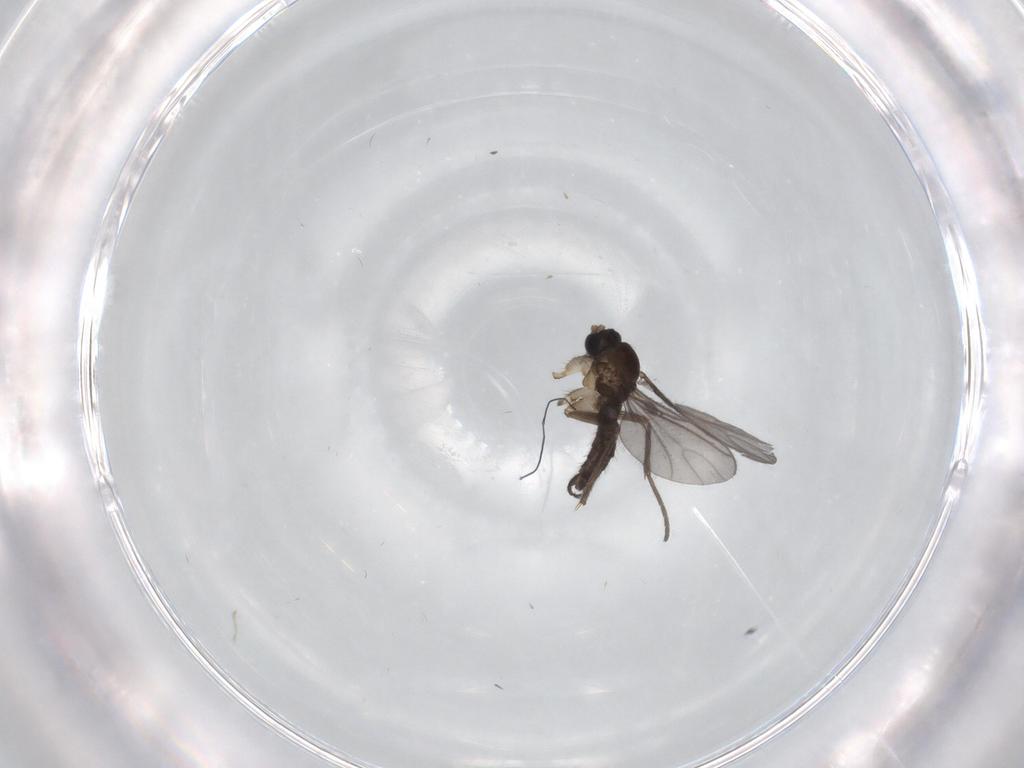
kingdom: Animalia
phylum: Arthropoda
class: Insecta
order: Diptera
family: Sciaridae
